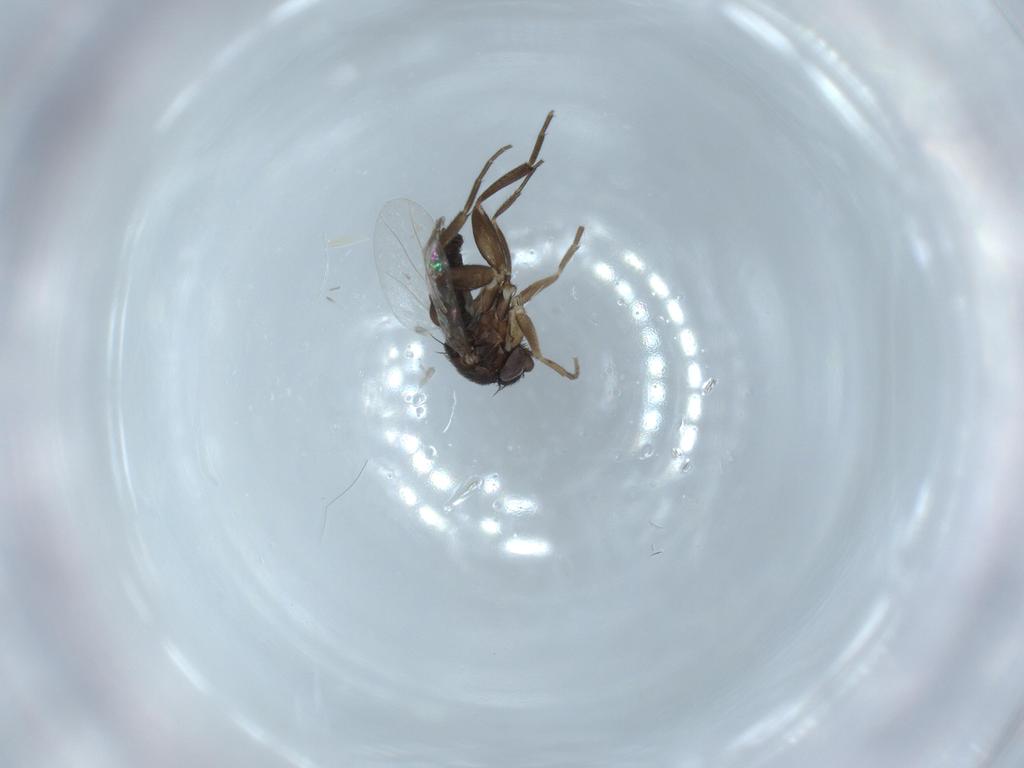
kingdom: Animalia
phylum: Arthropoda
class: Insecta
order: Diptera
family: Phoridae
